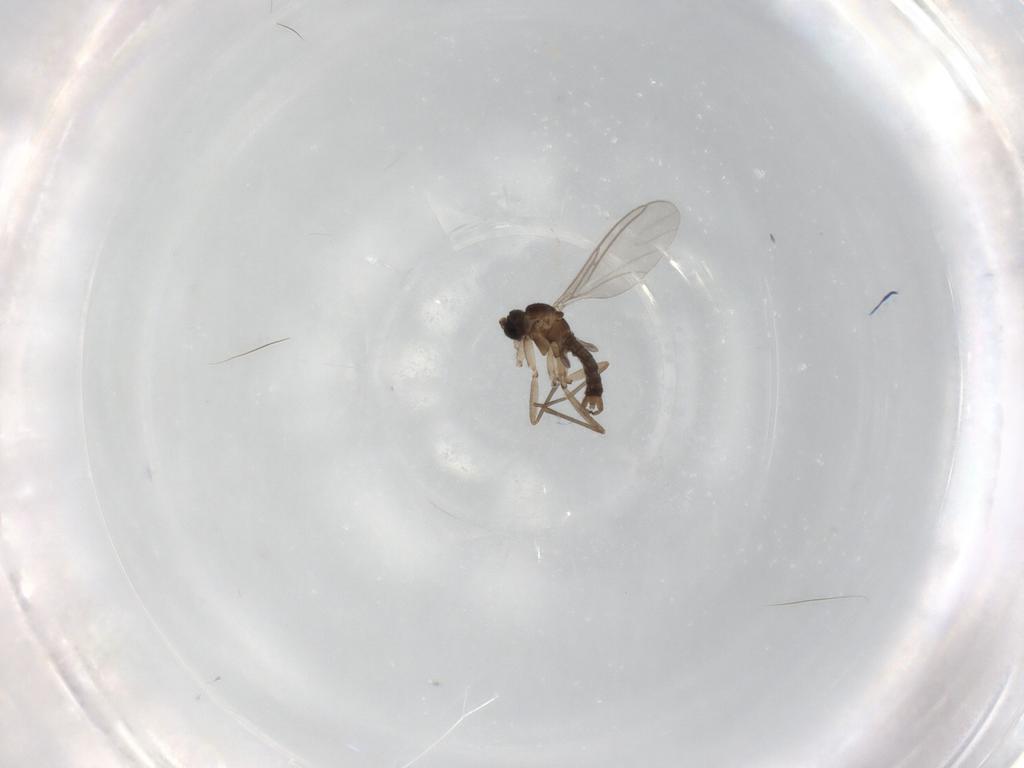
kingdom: Animalia
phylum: Arthropoda
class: Insecta
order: Diptera
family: Sciaridae
